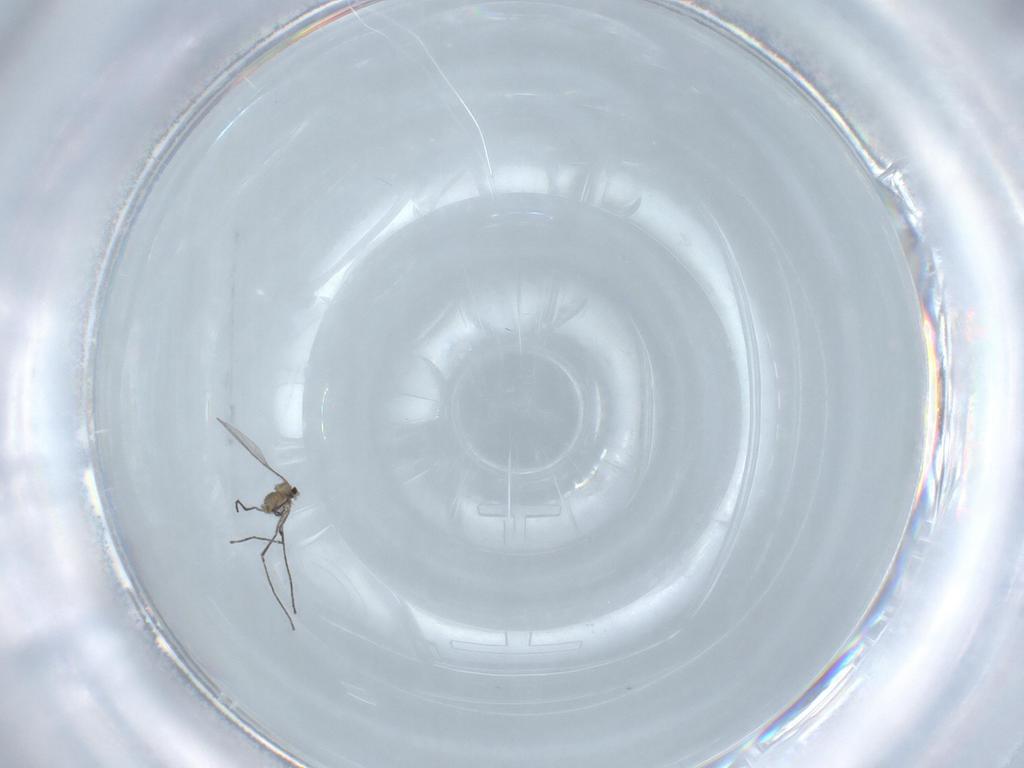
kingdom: Animalia
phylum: Arthropoda
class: Insecta
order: Diptera
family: Cecidomyiidae
